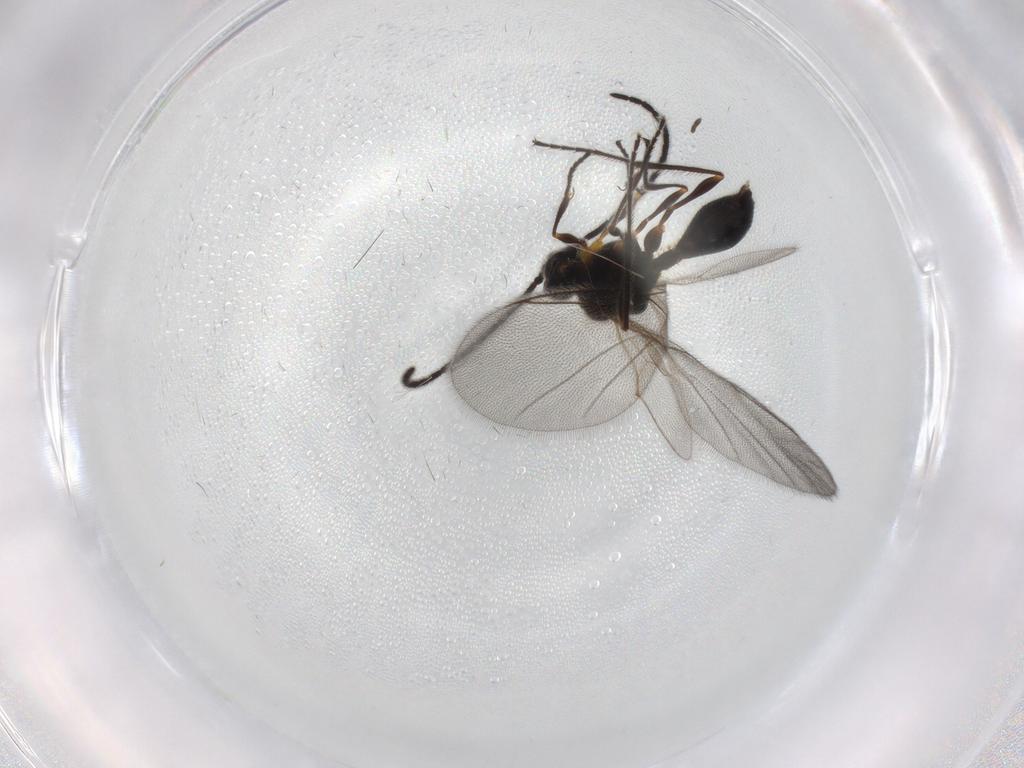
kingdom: Animalia
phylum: Arthropoda
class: Insecta
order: Hymenoptera
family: Diapriidae
